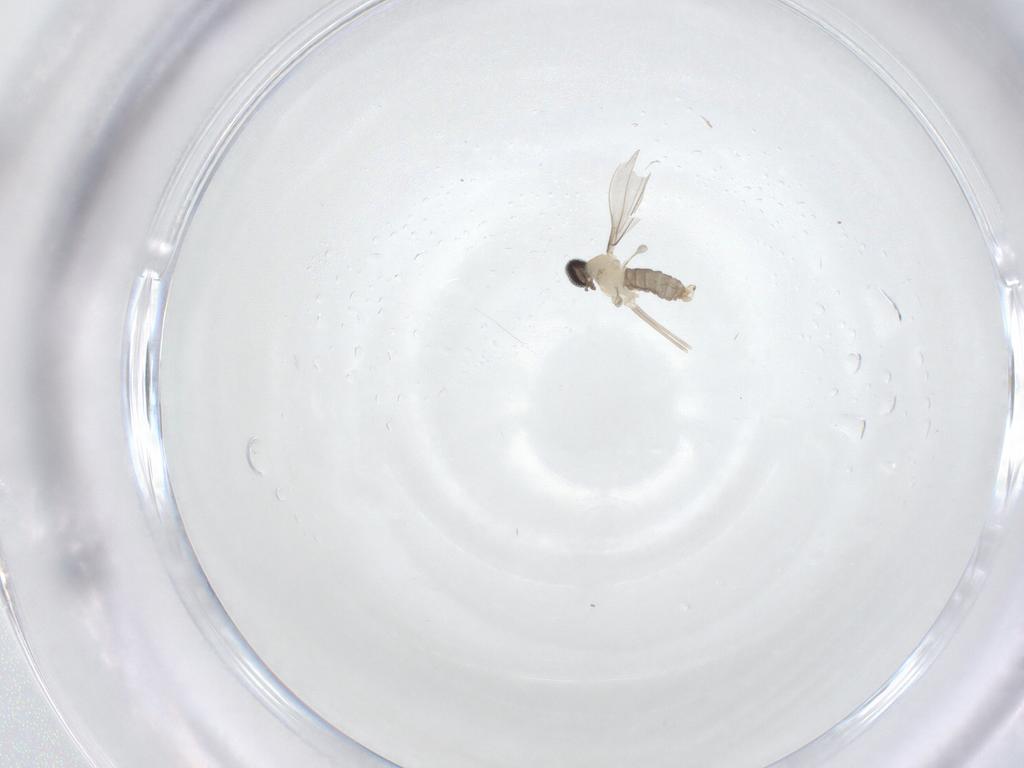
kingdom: Animalia
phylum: Arthropoda
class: Insecta
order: Diptera
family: Cecidomyiidae
